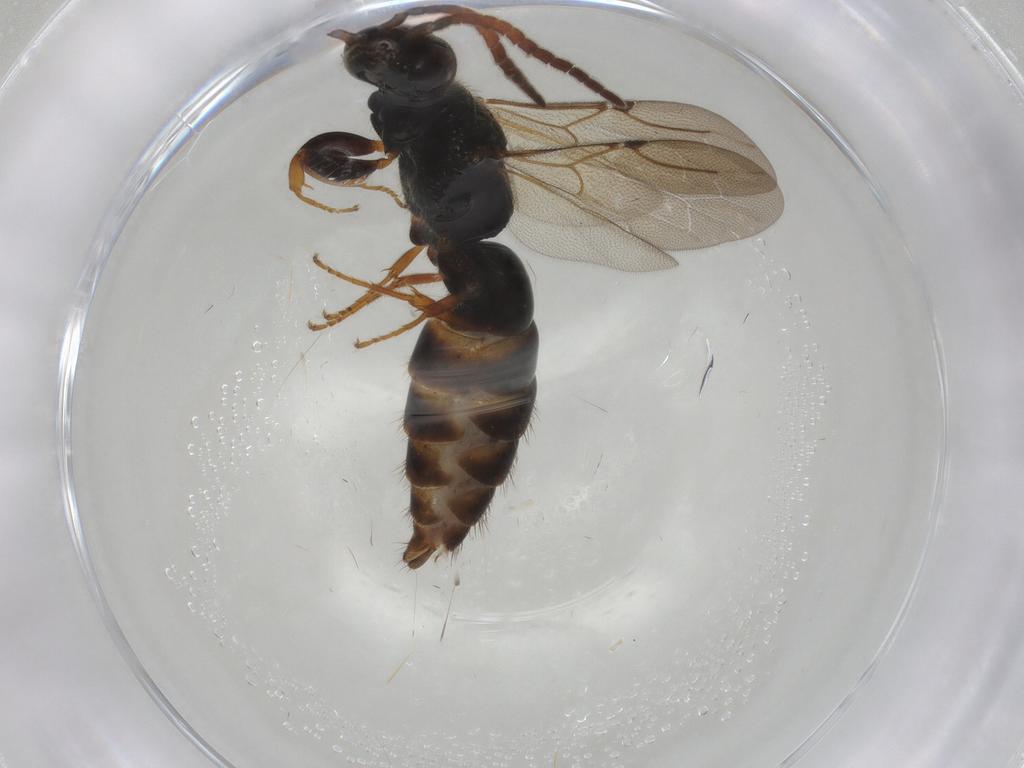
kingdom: Animalia
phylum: Arthropoda
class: Insecta
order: Hymenoptera
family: Bethylidae
